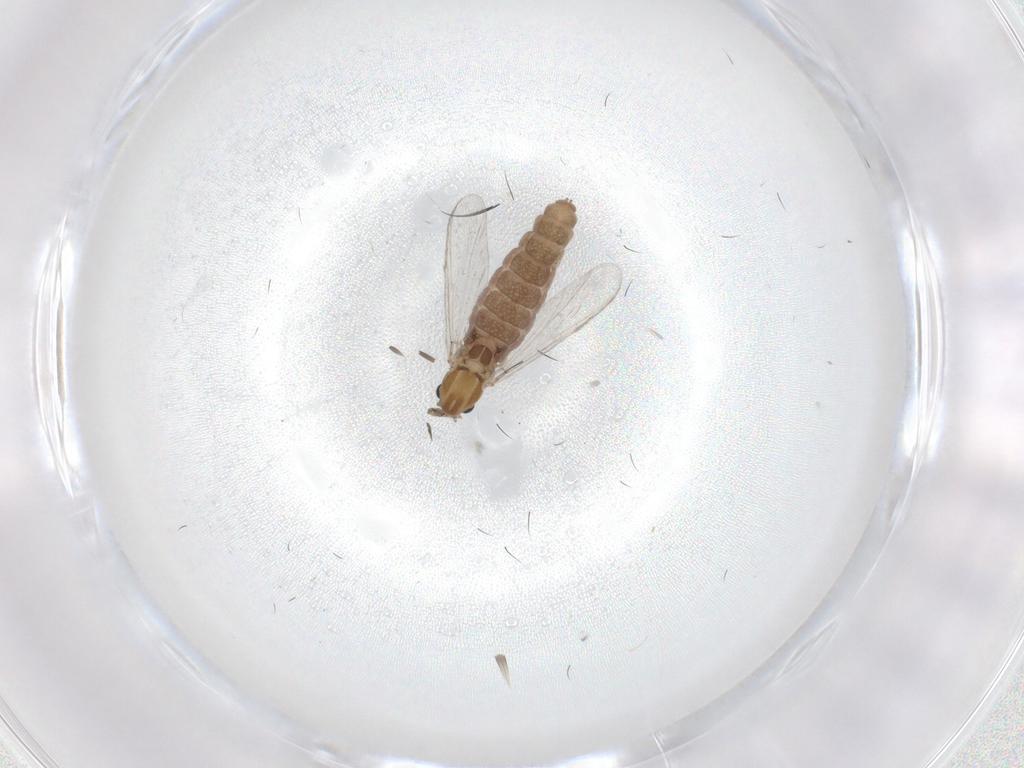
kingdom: Animalia
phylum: Arthropoda
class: Insecta
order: Diptera
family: Chironomidae
